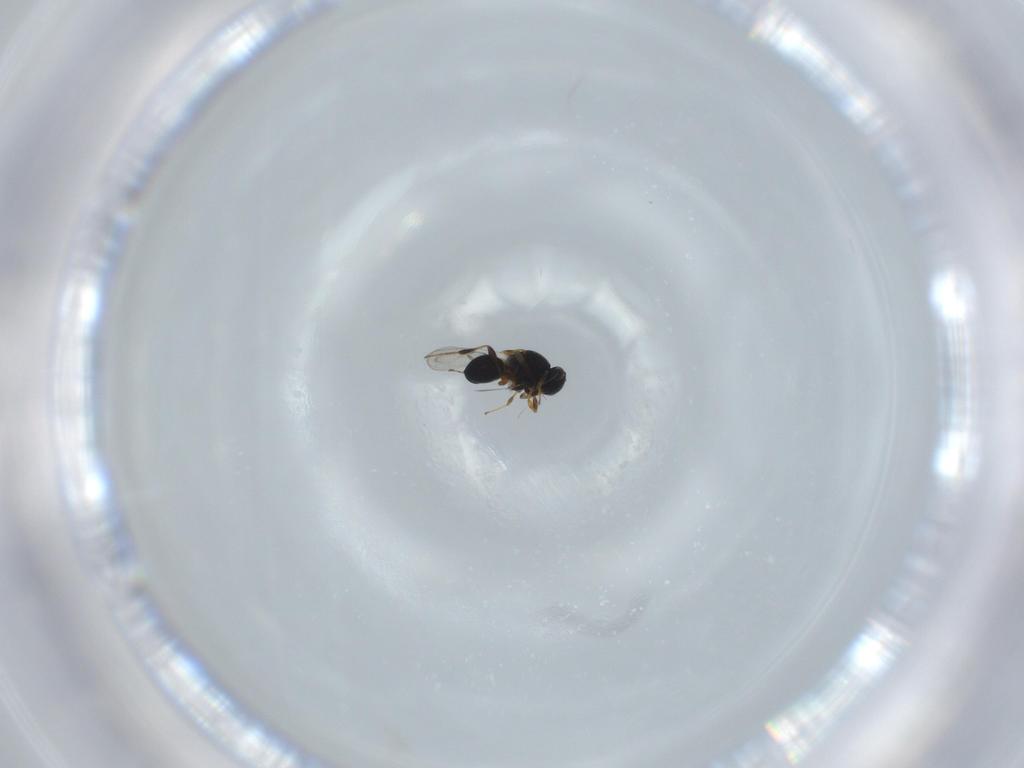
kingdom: Animalia
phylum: Arthropoda
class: Insecta
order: Hymenoptera
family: Platygastridae
